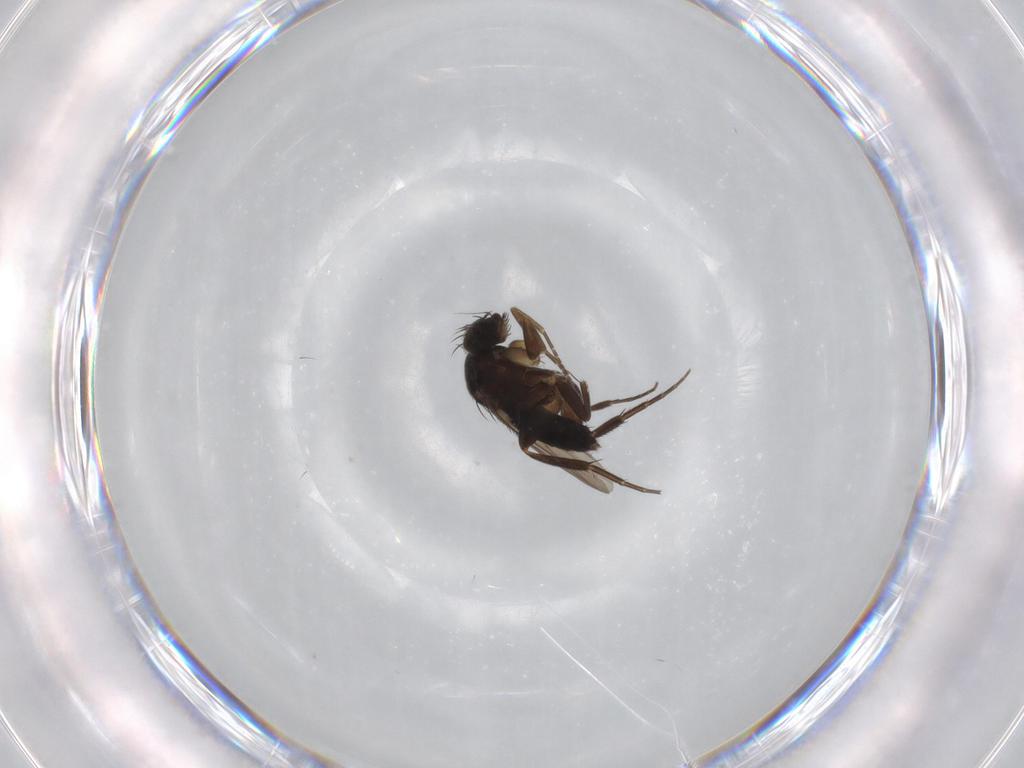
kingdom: Animalia
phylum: Arthropoda
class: Insecta
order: Diptera
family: Phoridae
